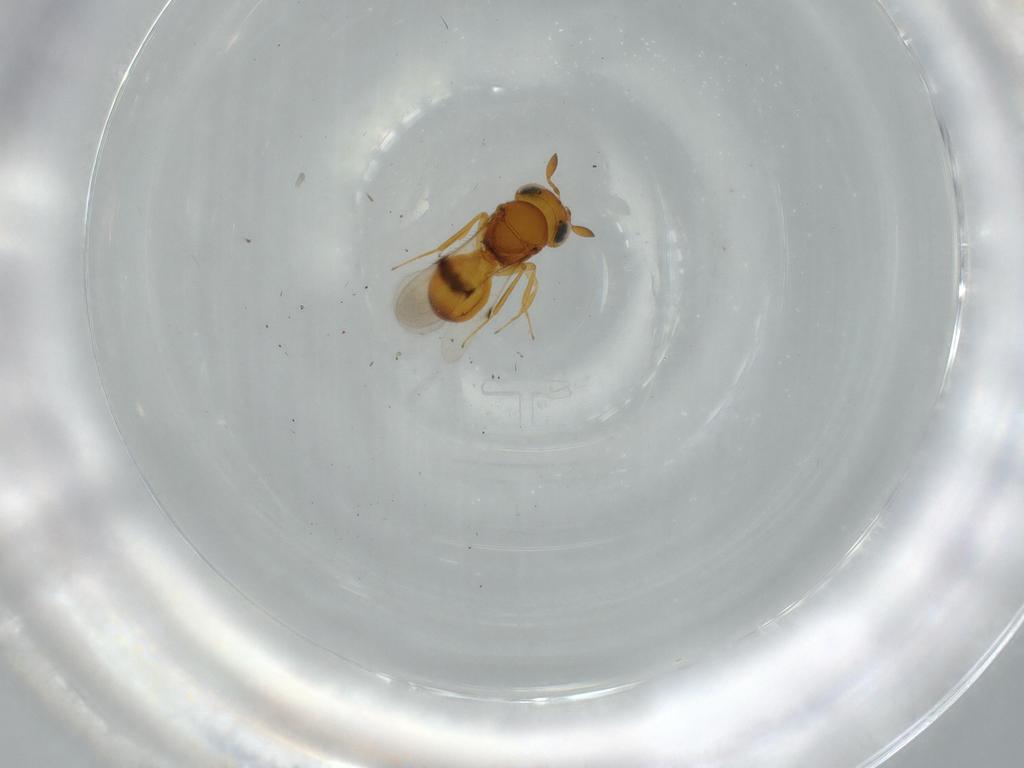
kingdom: Animalia
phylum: Arthropoda
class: Insecta
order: Hymenoptera
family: Scelionidae
